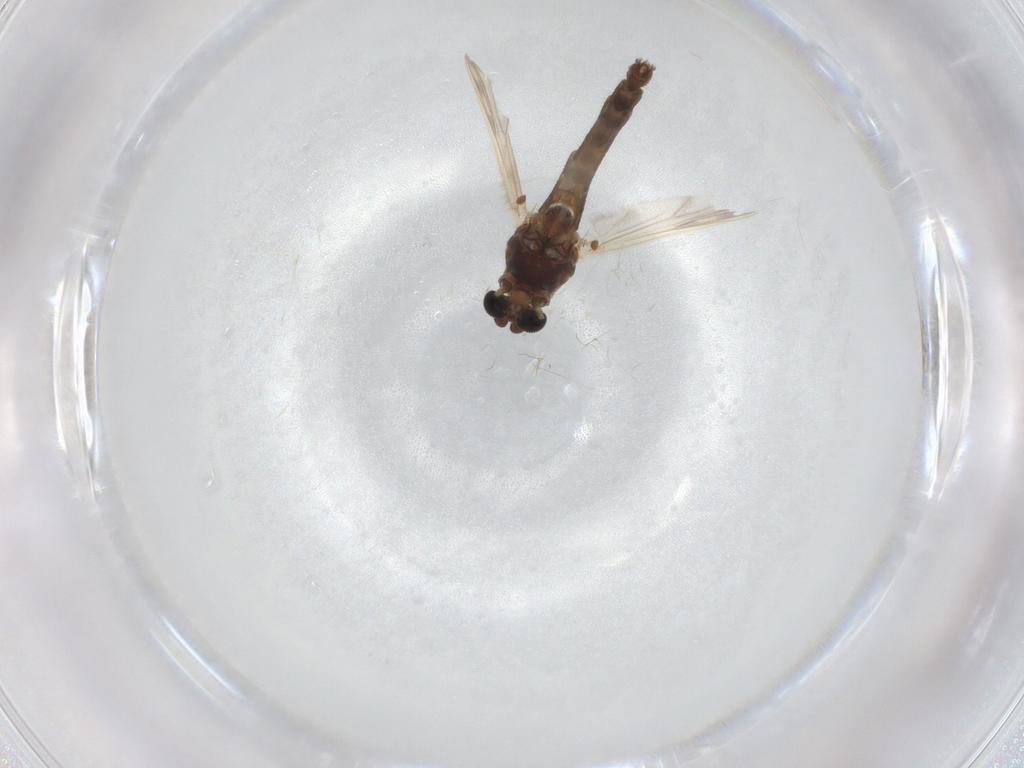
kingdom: Animalia
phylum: Arthropoda
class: Insecta
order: Diptera
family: Chironomidae
